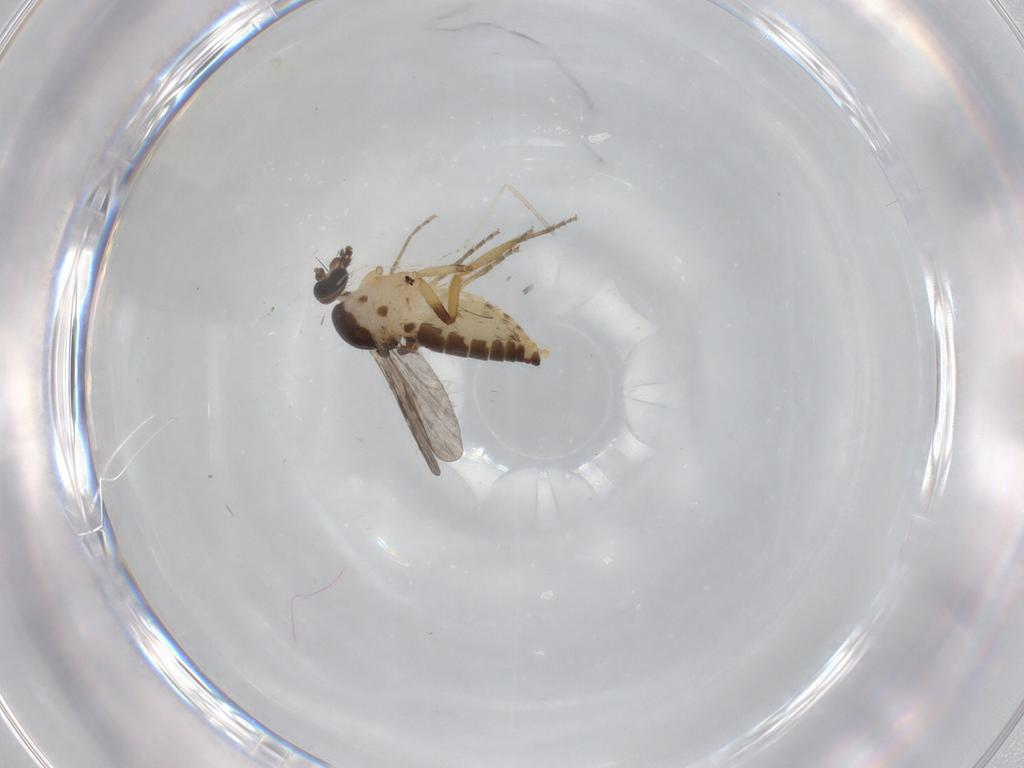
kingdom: Animalia
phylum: Arthropoda
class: Insecta
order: Diptera
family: Ceratopogonidae
